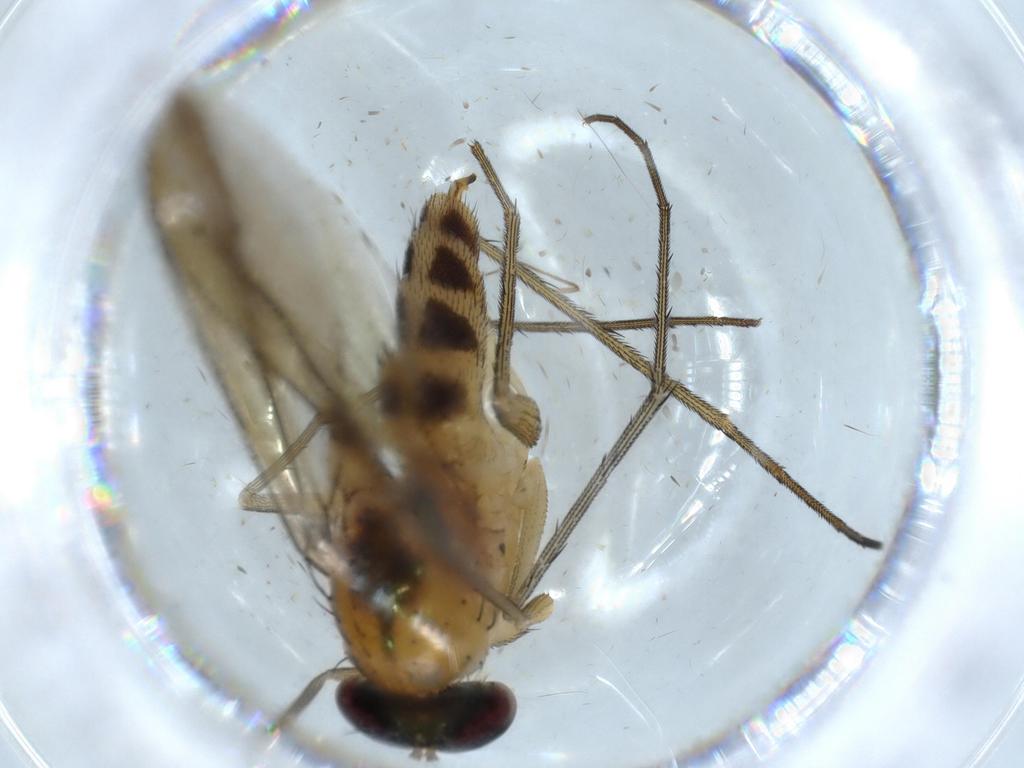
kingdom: Animalia
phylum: Arthropoda
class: Insecta
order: Diptera
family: Dolichopodidae
